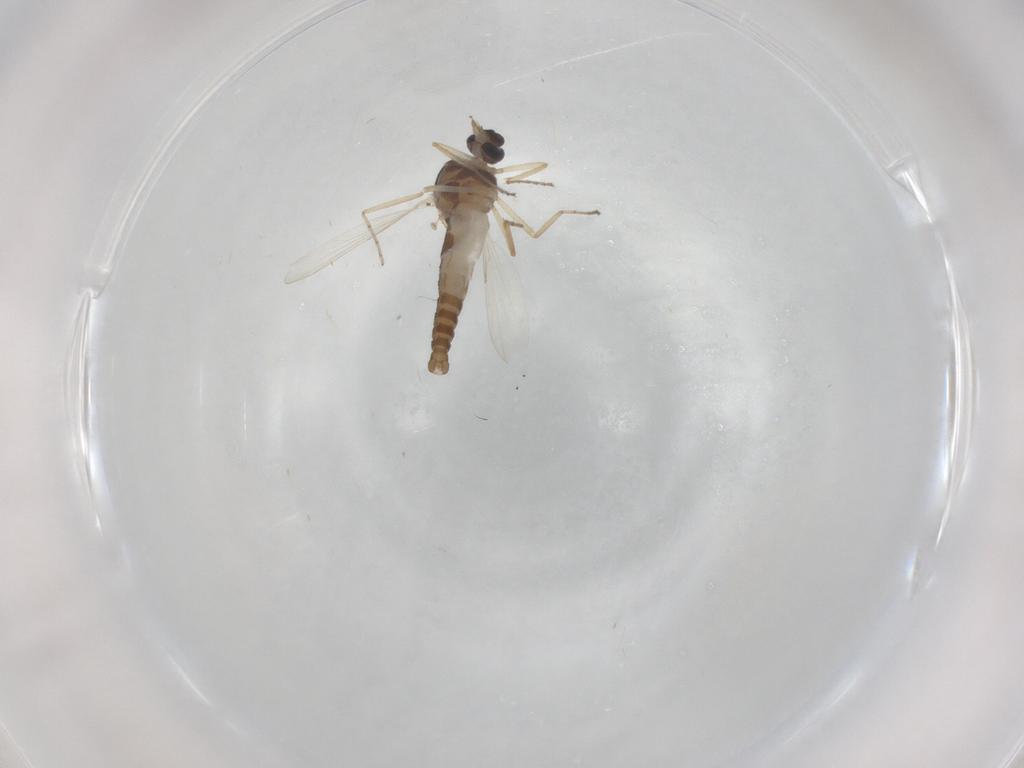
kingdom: Animalia
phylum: Arthropoda
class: Insecta
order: Diptera
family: Ceratopogonidae
